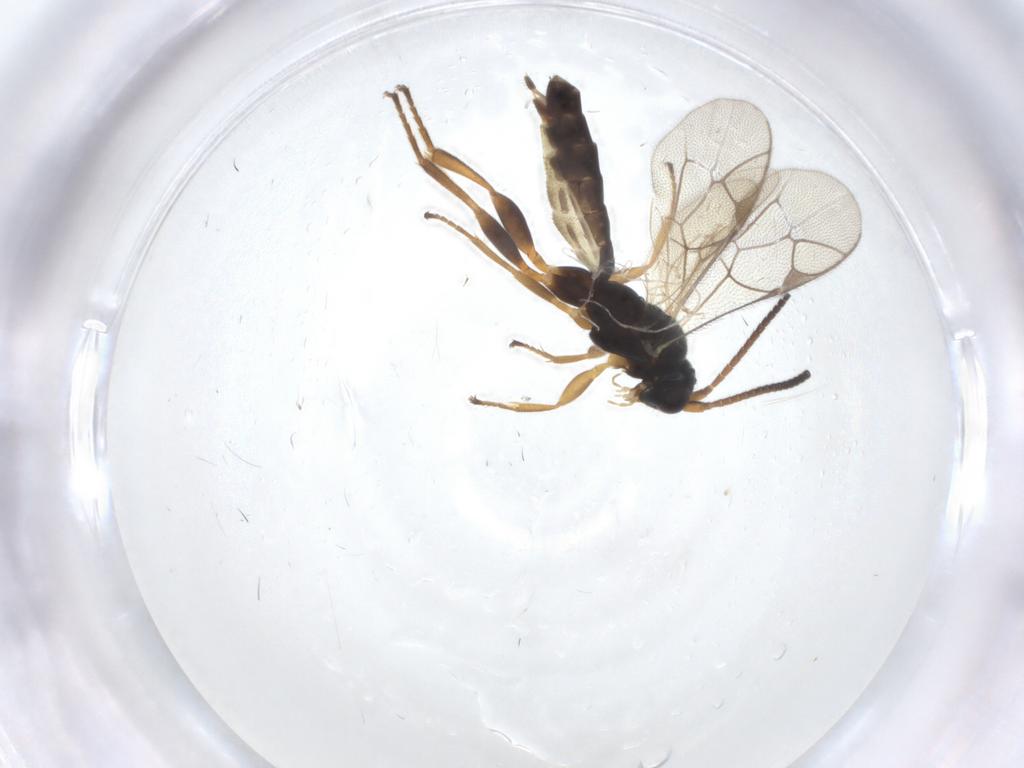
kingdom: Animalia
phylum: Arthropoda
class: Insecta
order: Hymenoptera
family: Ichneumonidae
